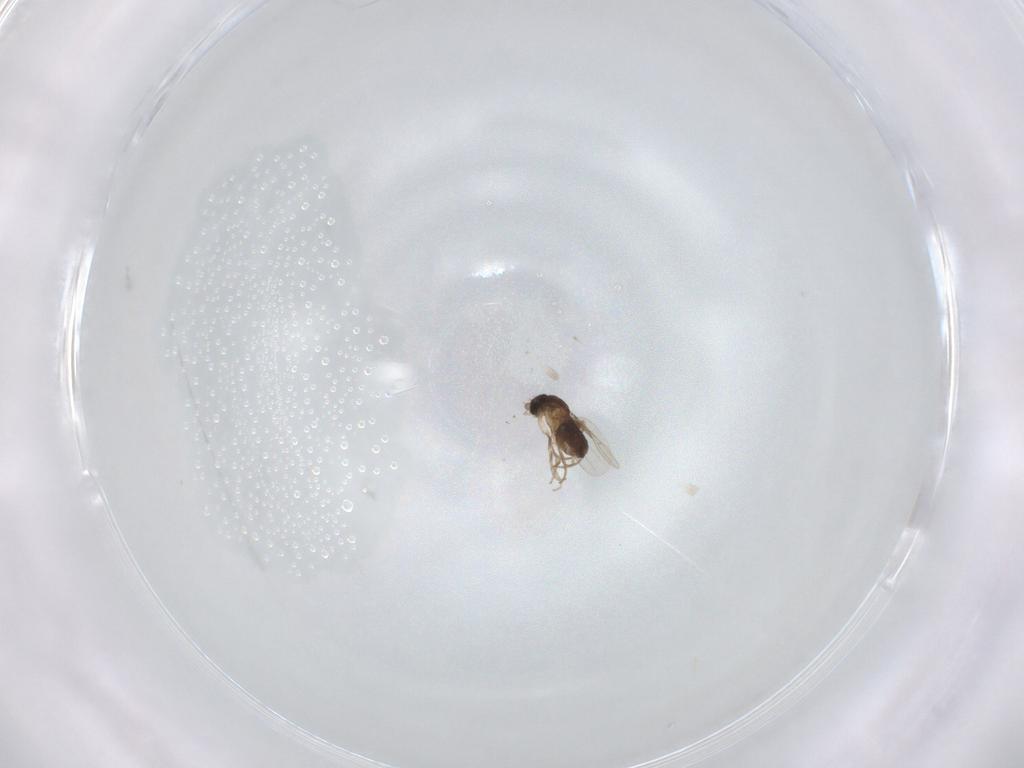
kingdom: Animalia
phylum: Arthropoda
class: Insecta
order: Diptera
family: Phoridae
